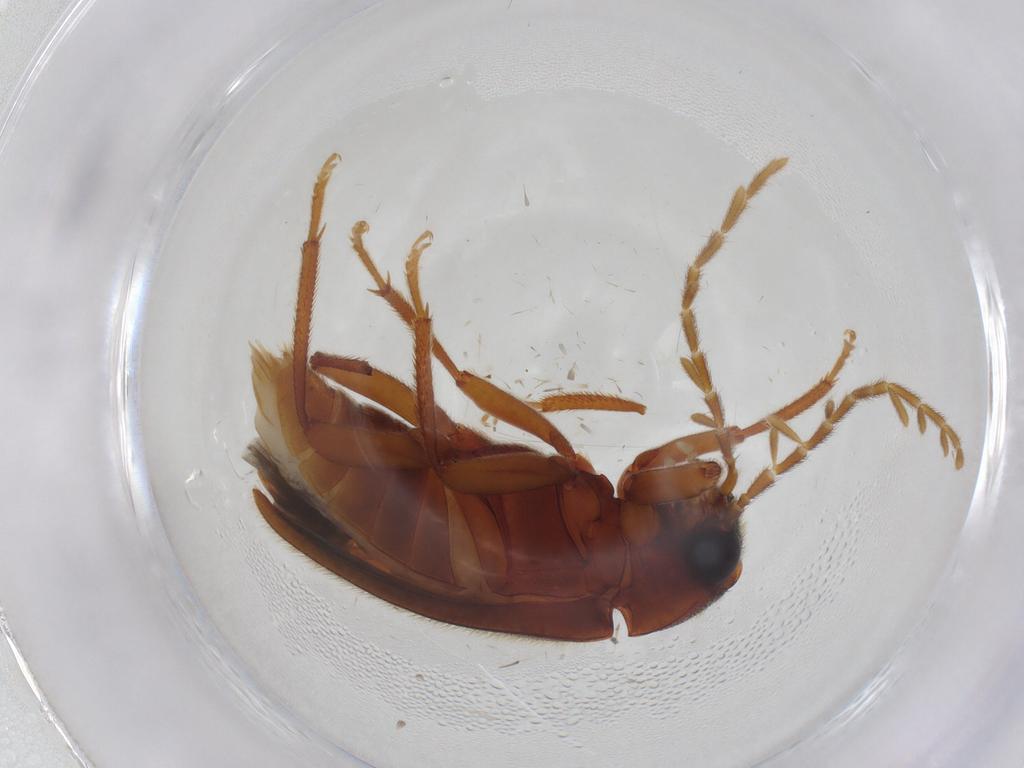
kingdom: Animalia
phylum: Arthropoda
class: Insecta
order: Coleoptera
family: Ptilodactylidae
